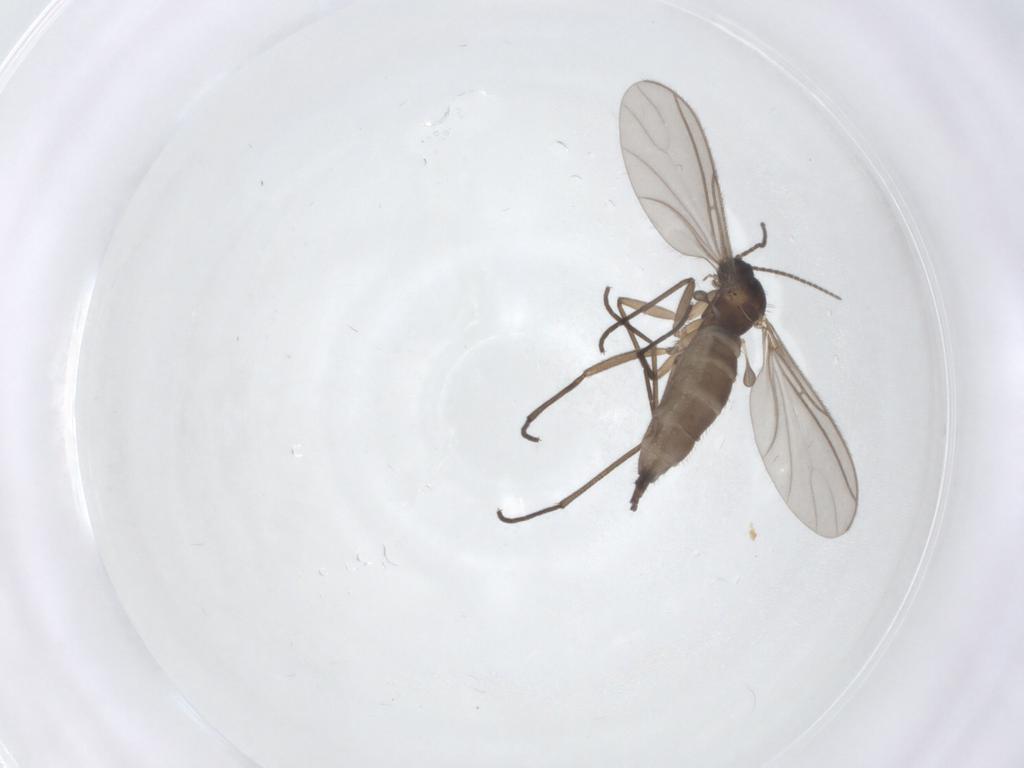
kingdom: Animalia
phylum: Arthropoda
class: Insecta
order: Diptera
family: Sciaridae
